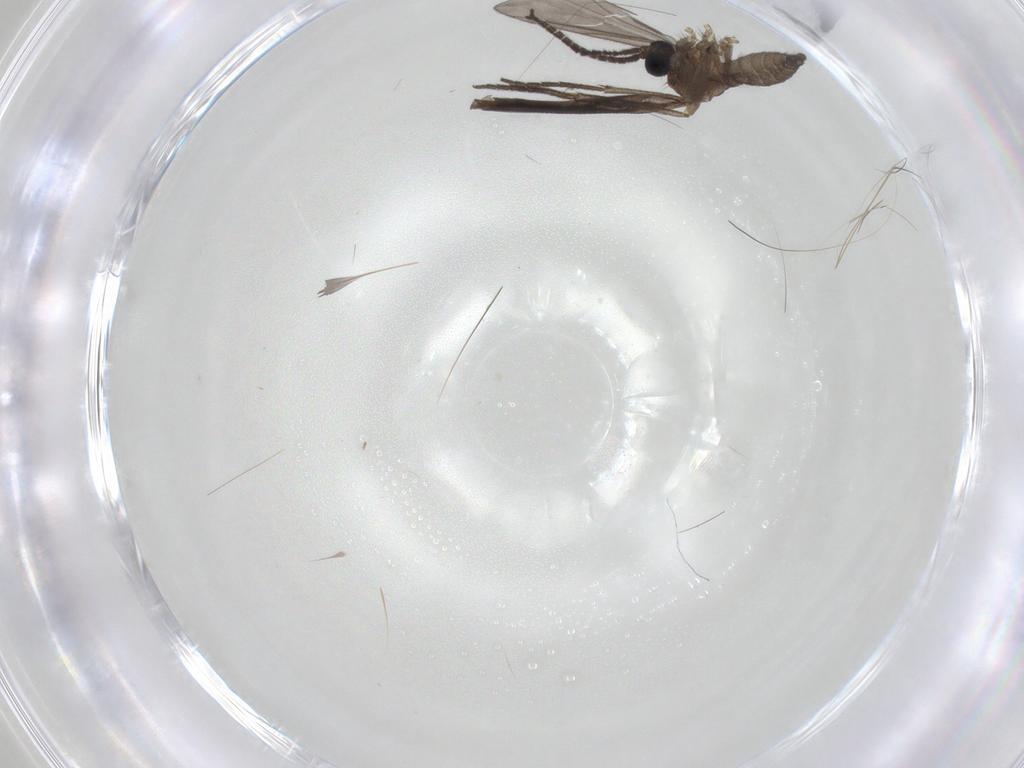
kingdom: Animalia
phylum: Arthropoda
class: Insecta
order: Diptera
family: Sciaridae
